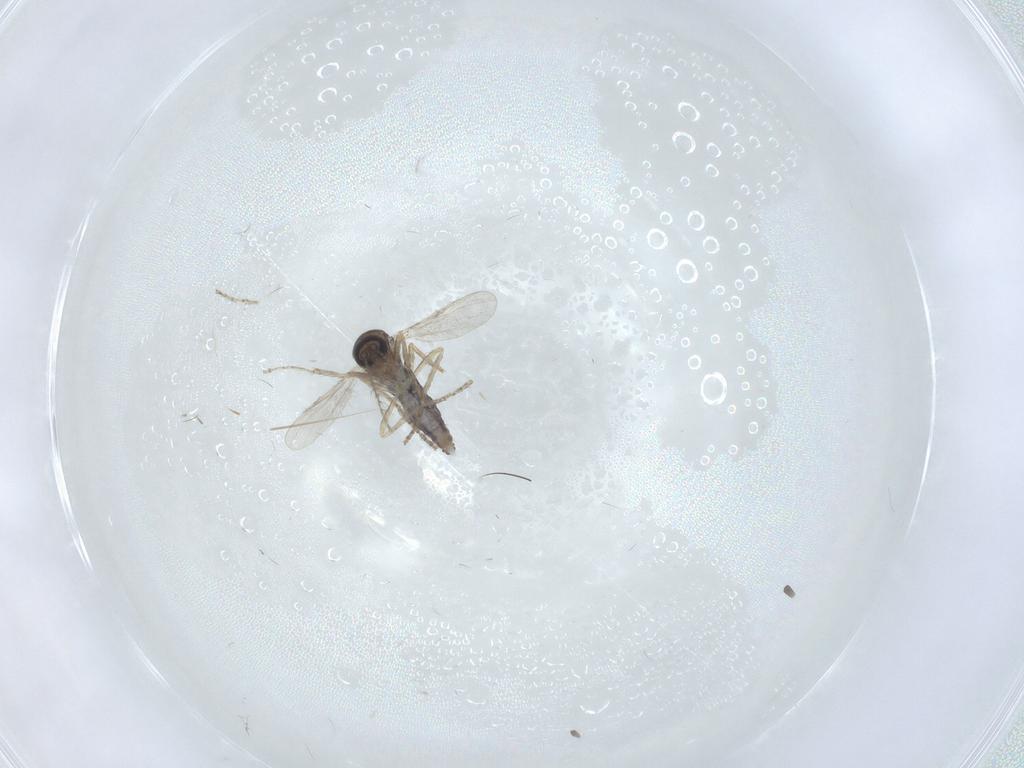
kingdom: Animalia
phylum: Arthropoda
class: Insecta
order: Diptera
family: Ceratopogonidae
